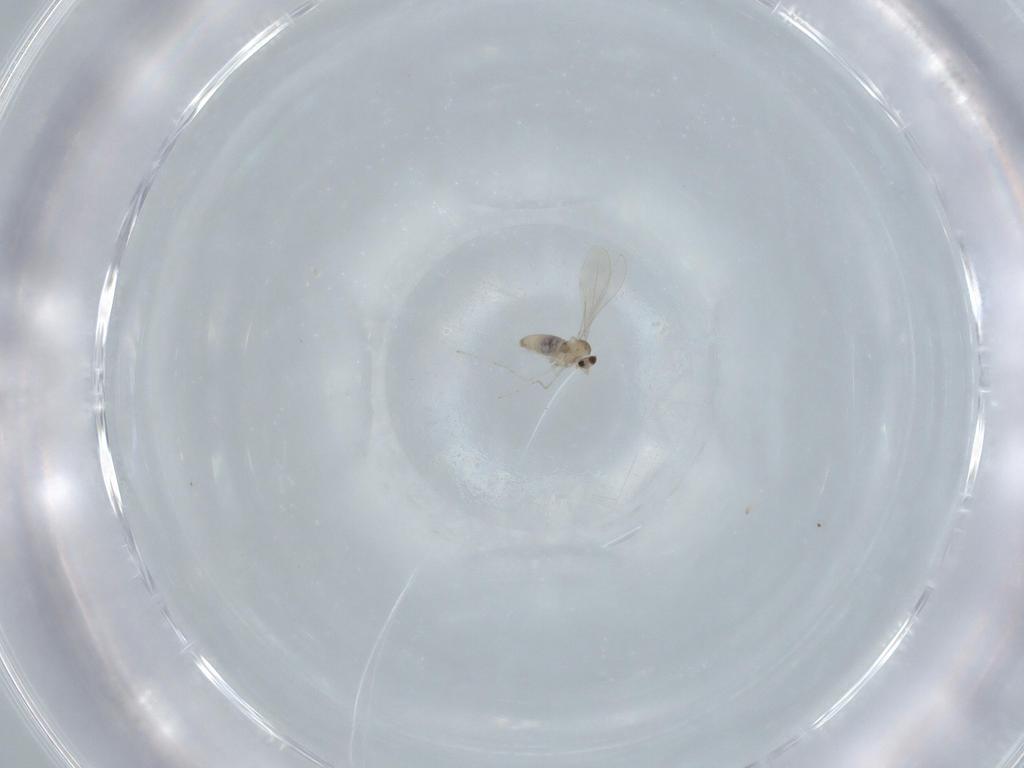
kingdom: Animalia
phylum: Arthropoda
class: Insecta
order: Diptera
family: Cecidomyiidae
